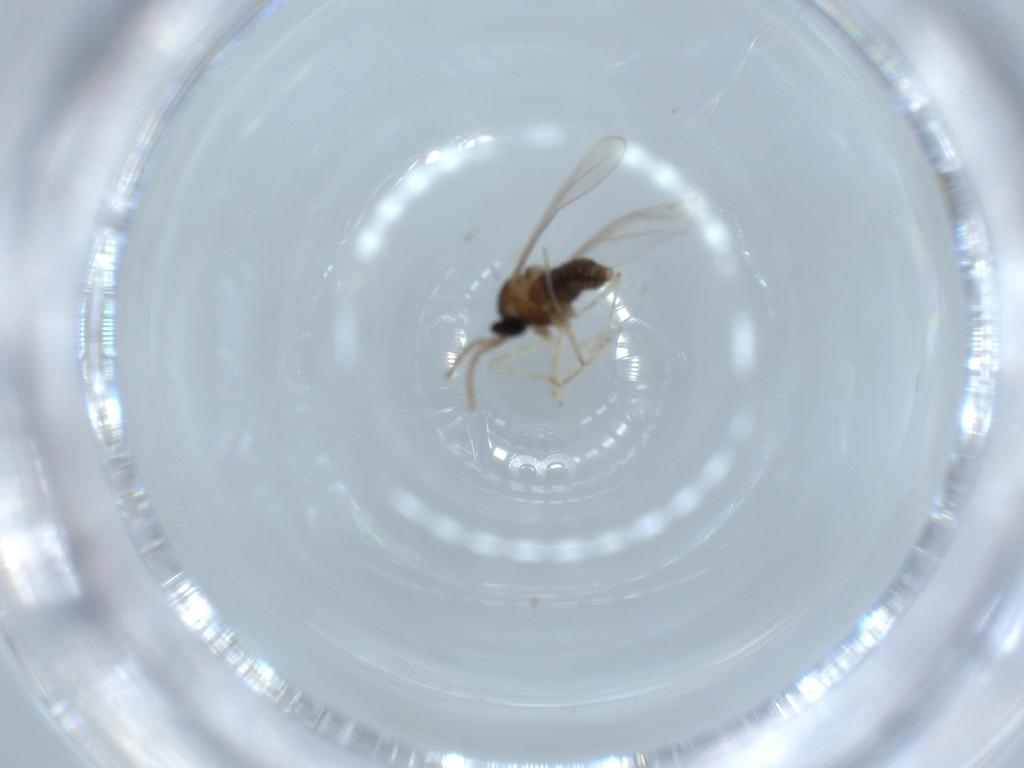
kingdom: Animalia
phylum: Arthropoda
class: Insecta
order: Diptera
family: Cecidomyiidae
